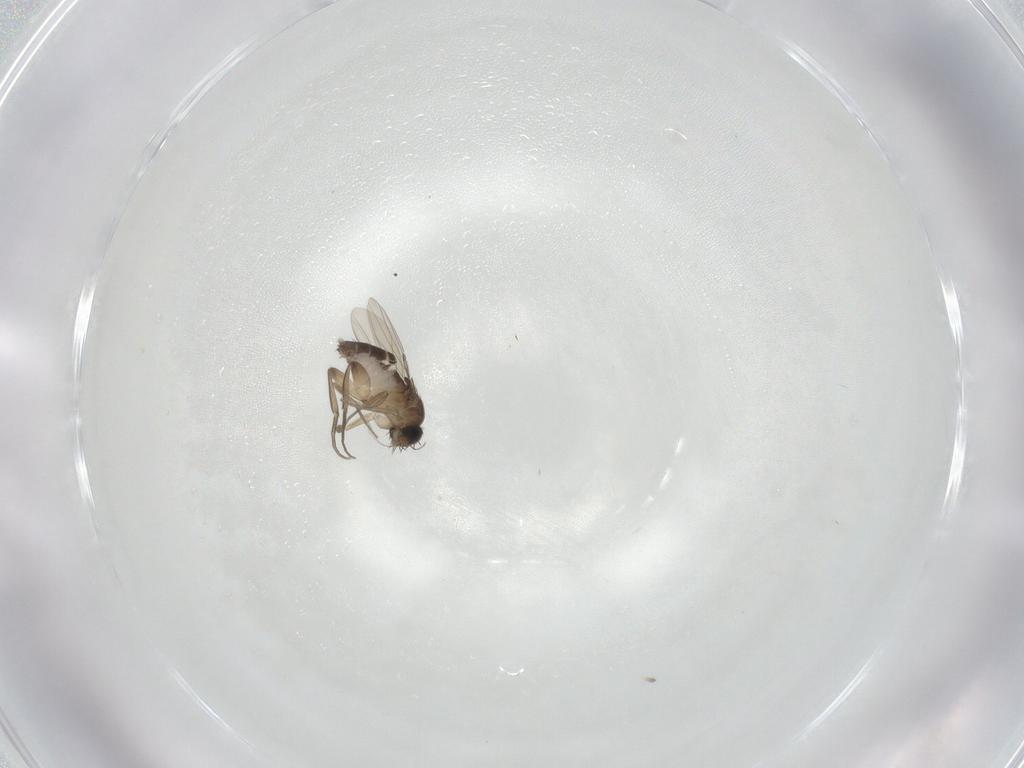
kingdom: Animalia
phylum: Arthropoda
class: Insecta
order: Diptera
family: Phoridae
